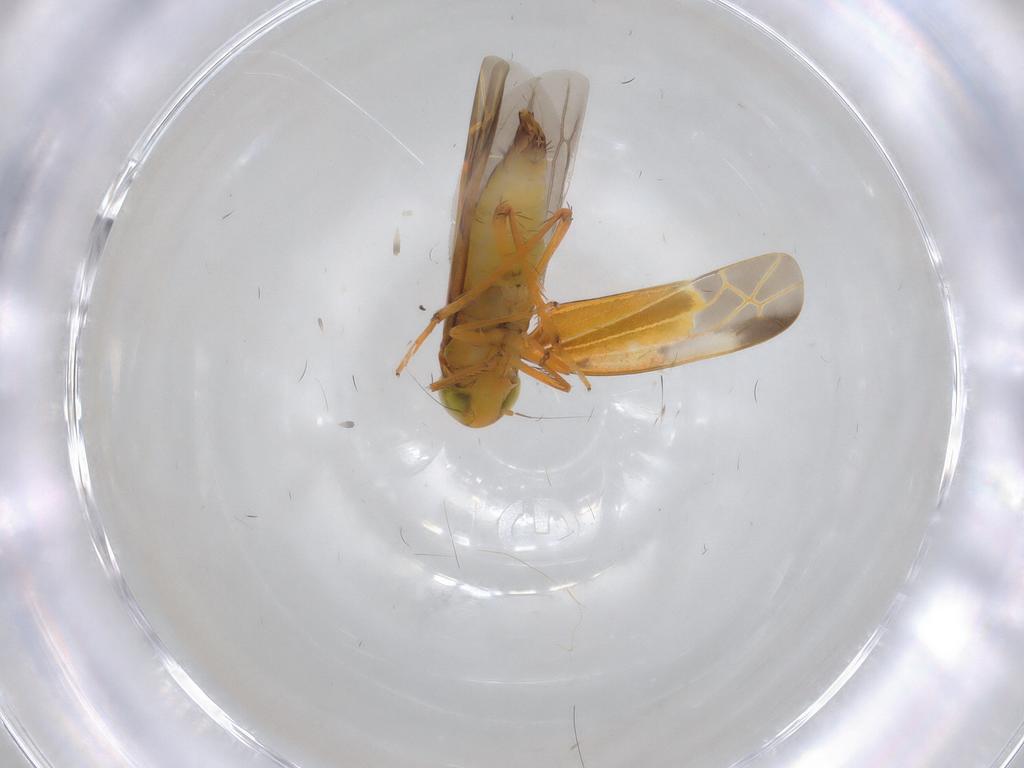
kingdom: Animalia
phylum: Arthropoda
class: Insecta
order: Hemiptera
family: Cicadellidae
